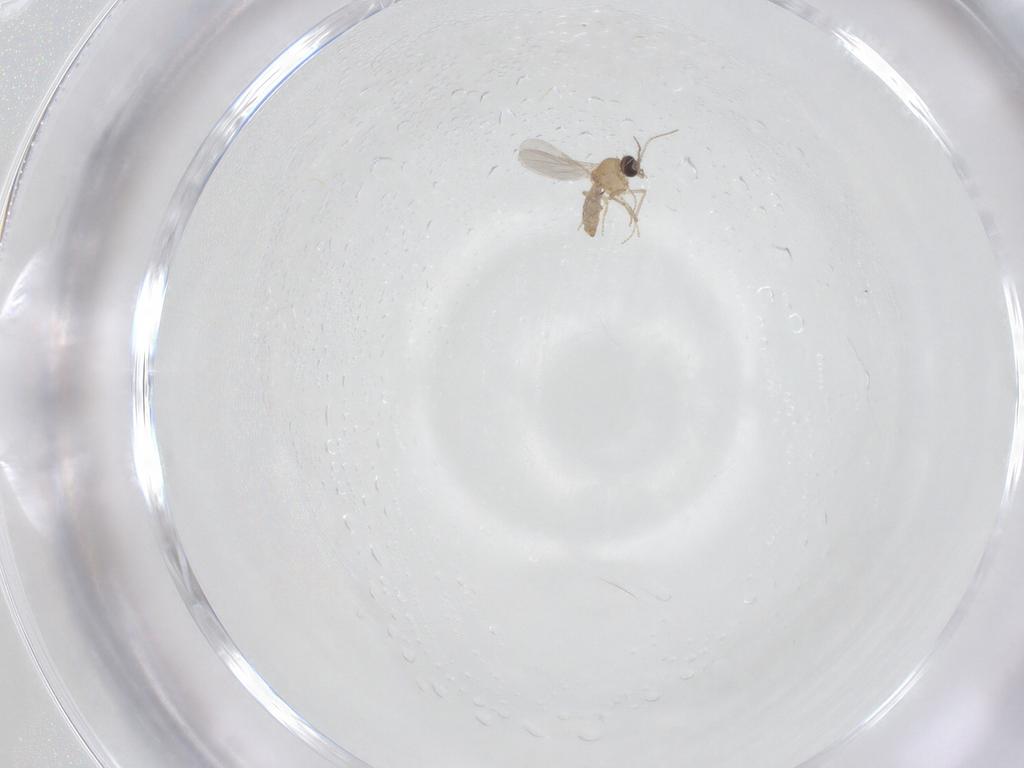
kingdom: Animalia
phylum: Arthropoda
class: Insecta
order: Diptera
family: Ceratopogonidae
